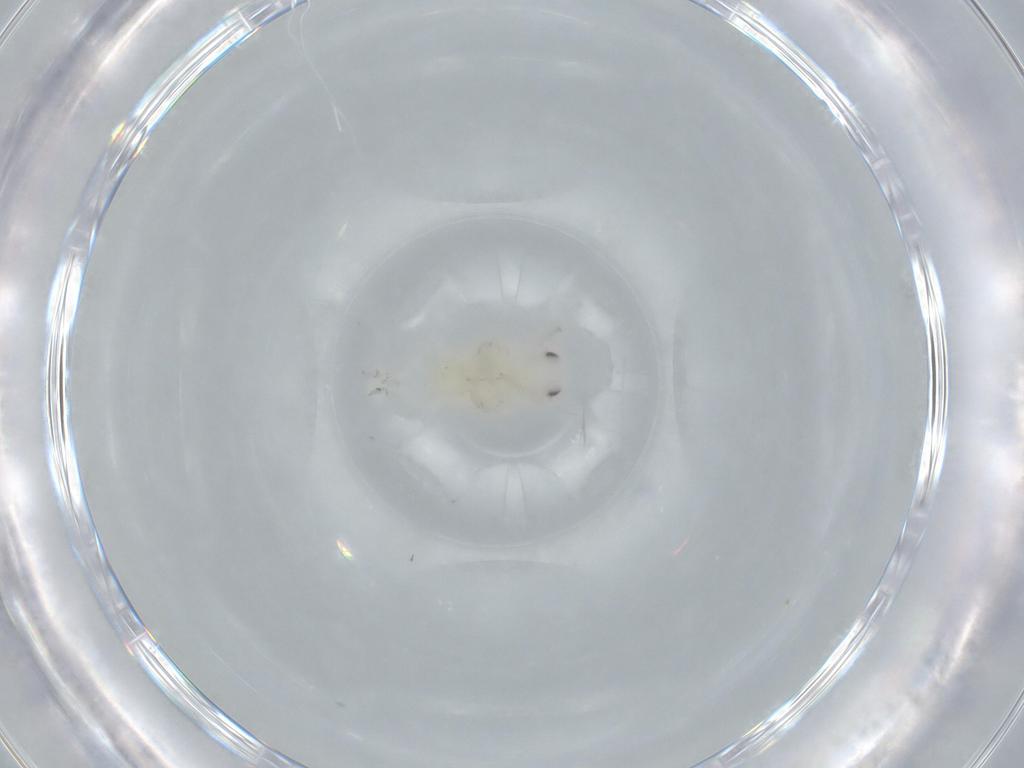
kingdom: Animalia
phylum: Arthropoda
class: Insecta
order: Hemiptera
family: Flatidae
